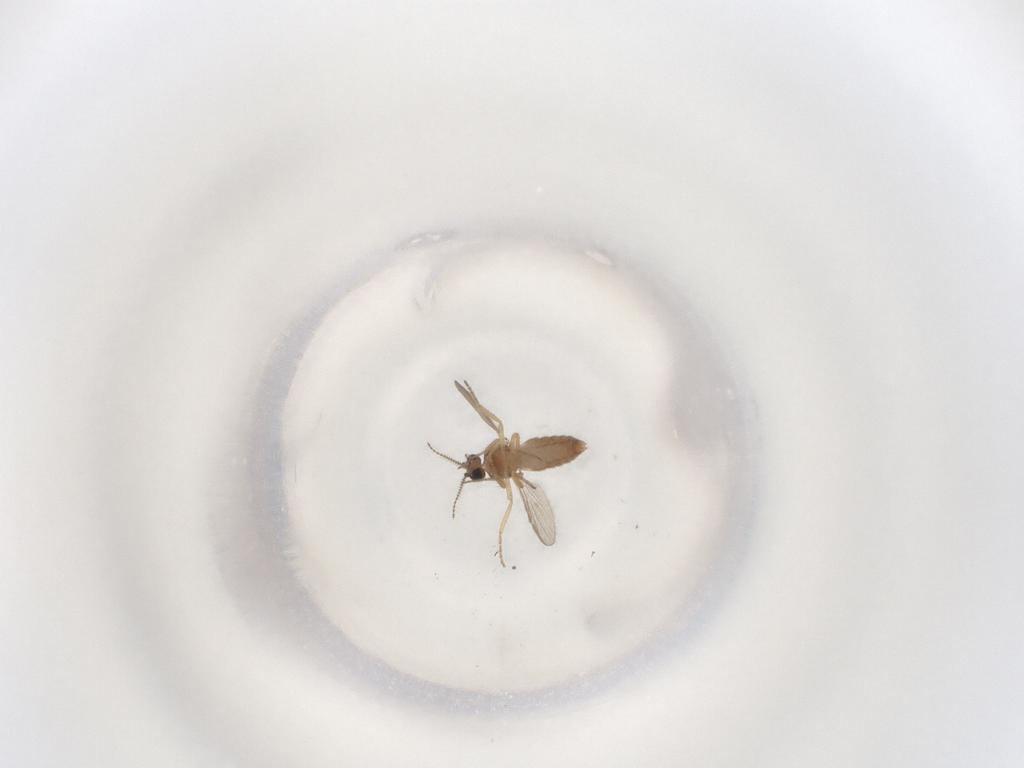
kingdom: Animalia
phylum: Arthropoda
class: Insecta
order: Diptera
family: Ceratopogonidae
